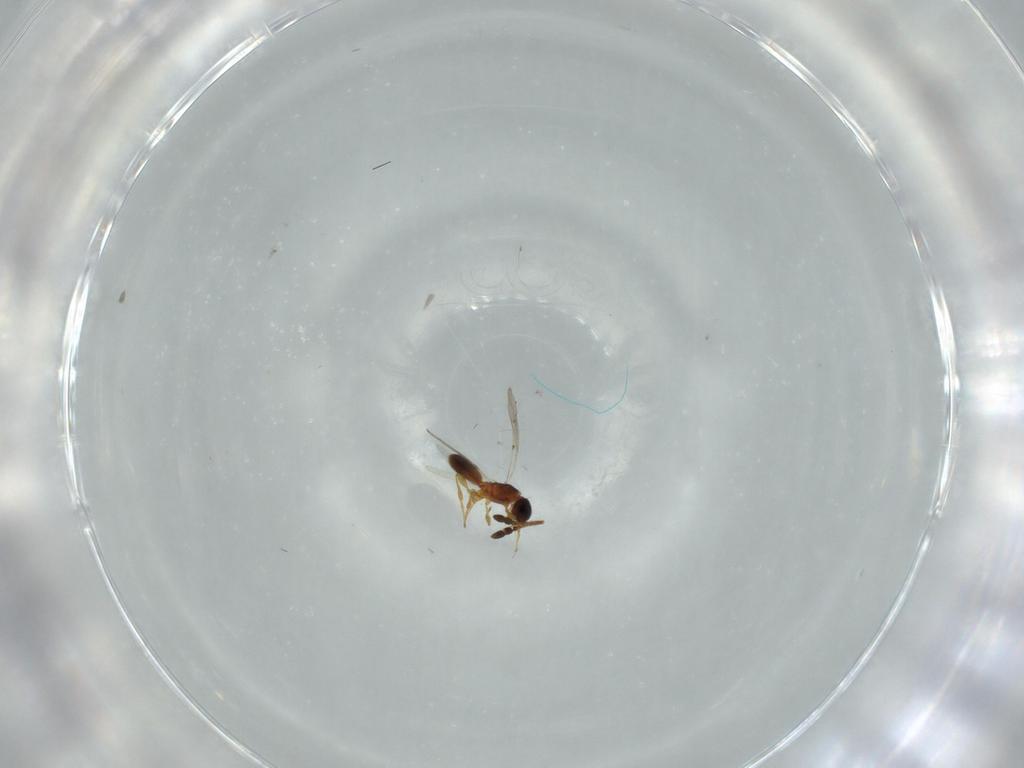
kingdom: Animalia
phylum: Arthropoda
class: Insecta
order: Hymenoptera
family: Diapriidae
